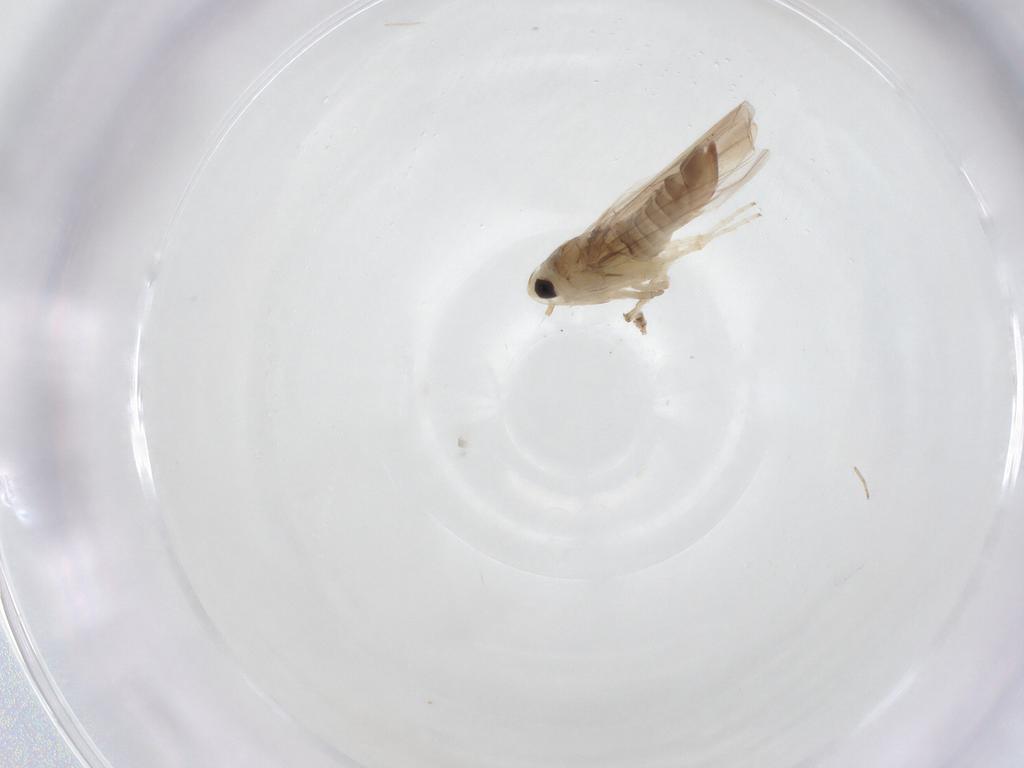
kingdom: Animalia
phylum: Arthropoda
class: Insecta
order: Hemiptera
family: Cicadellidae
